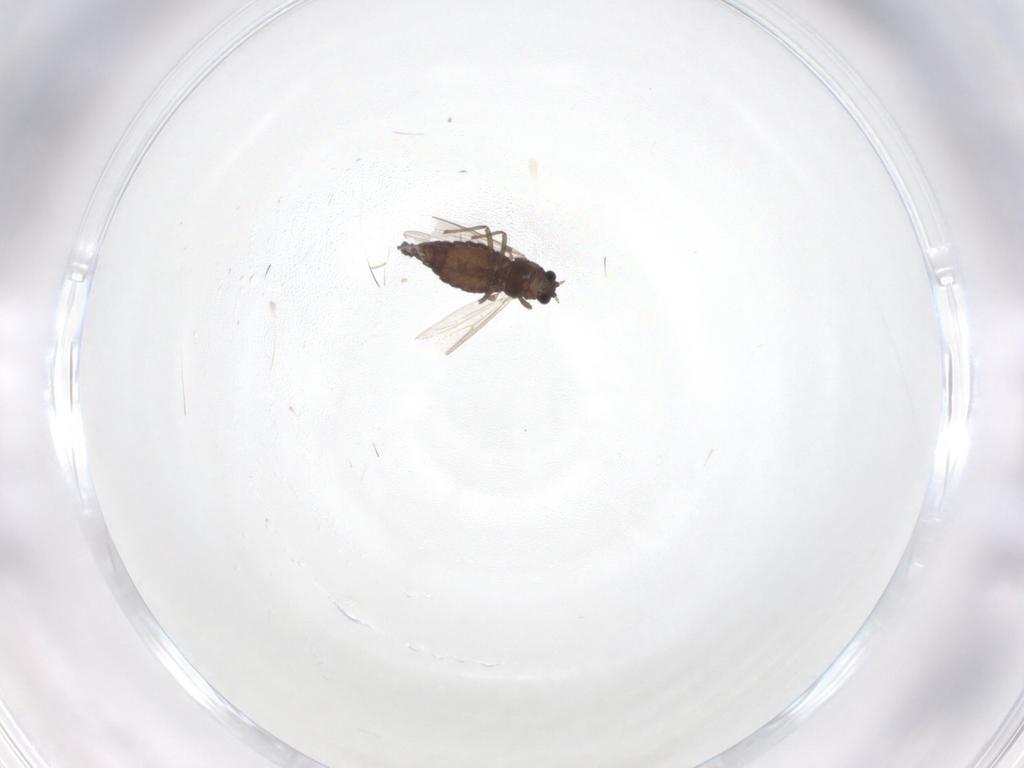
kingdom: Animalia
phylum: Arthropoda
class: Insecta
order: Diptera
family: Chironomidae
